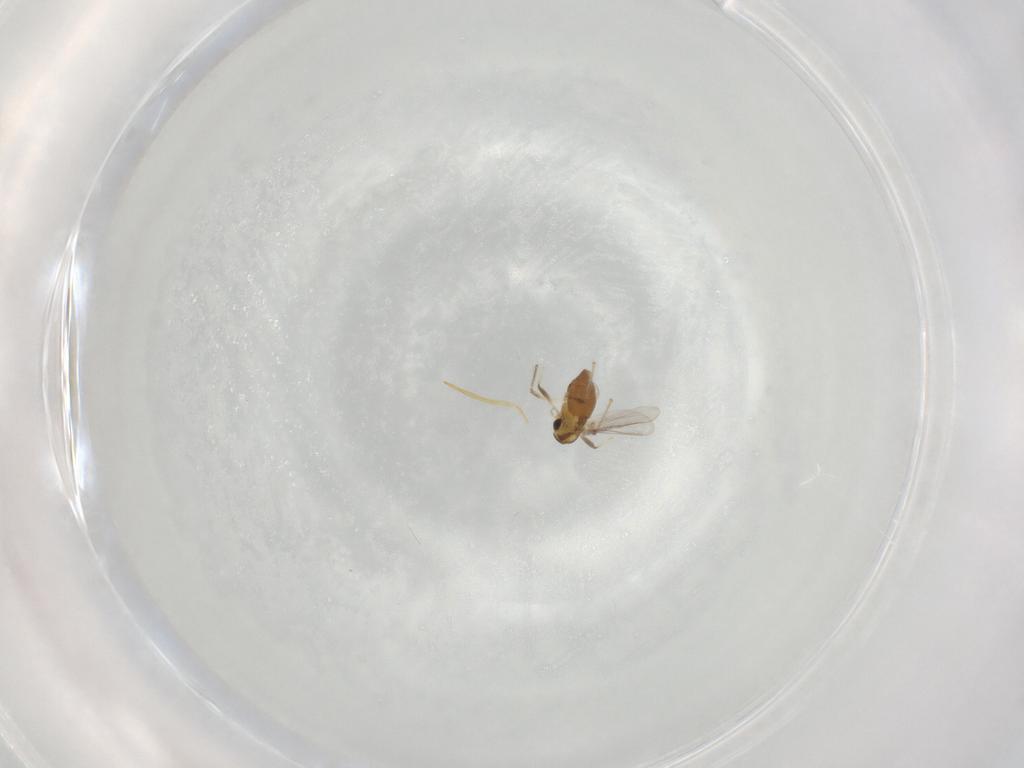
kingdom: Animalia
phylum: Arthropoda
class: Insecta
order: Diptera
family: Chironomidae
